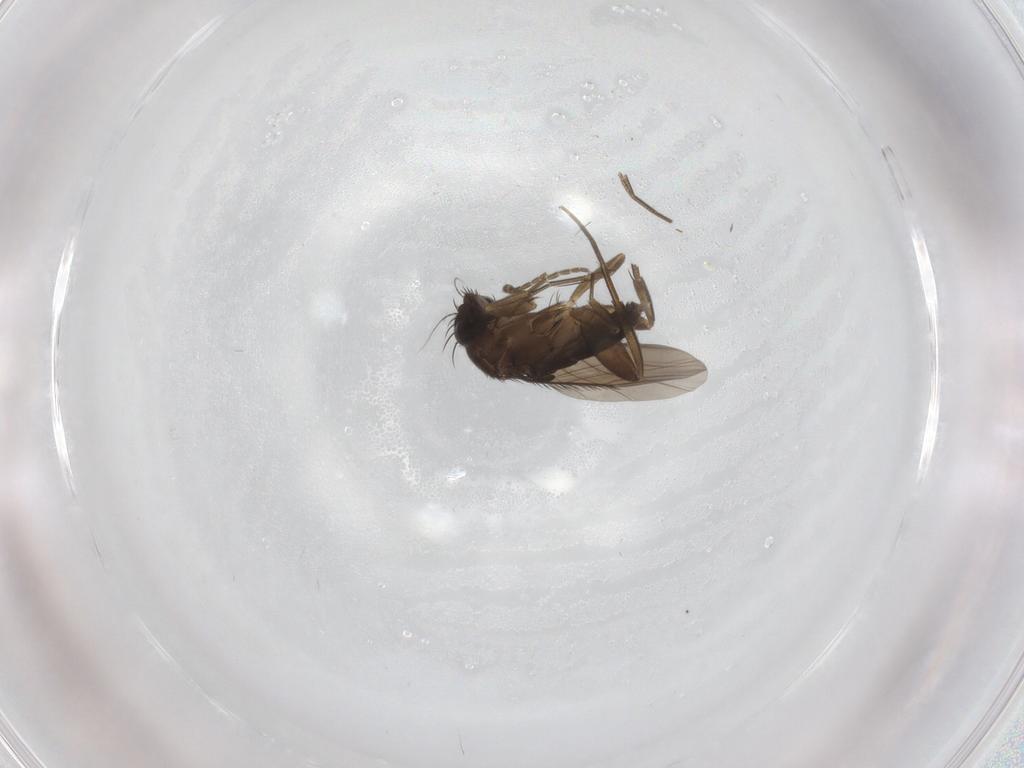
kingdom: Animalia
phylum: Arthropoda
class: Insecta
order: Diptera
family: Phoridae
